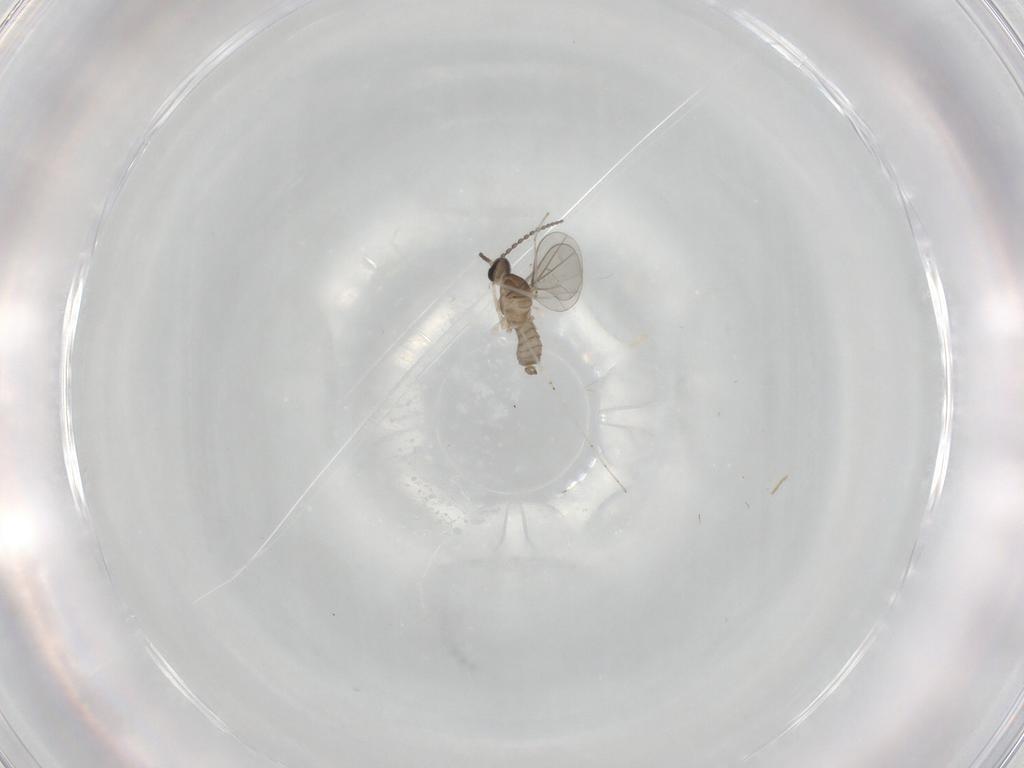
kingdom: Animalia
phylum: Arthropoda
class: Insecta
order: Diptera
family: Cecidomyiidae
